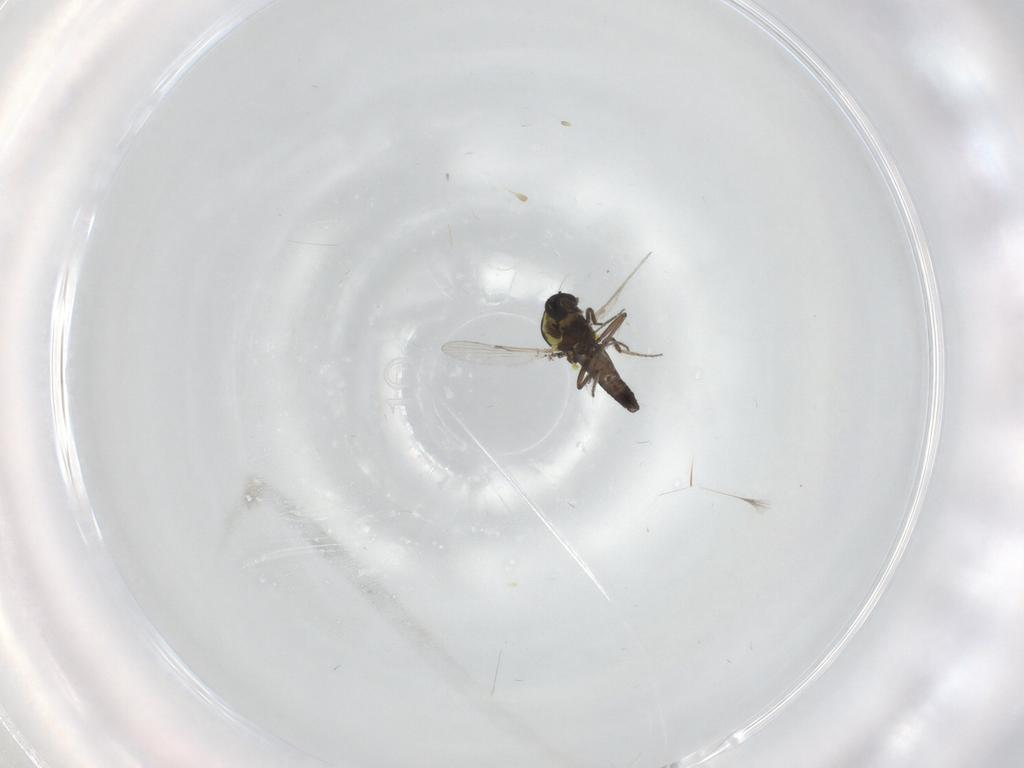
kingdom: Animalia
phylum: Arthropoda
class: Insecta
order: Diptera
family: Ceratopogonidae
